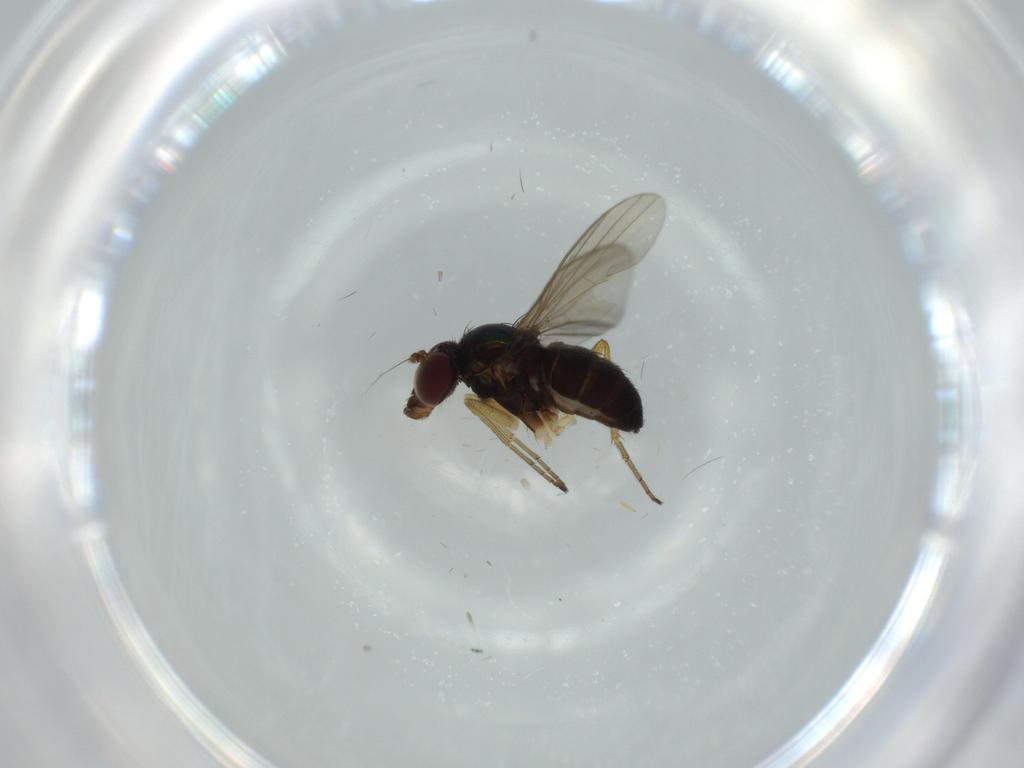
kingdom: Animalia
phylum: Arthropoda
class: Insecta
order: Diptera
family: Dolichopodidae
